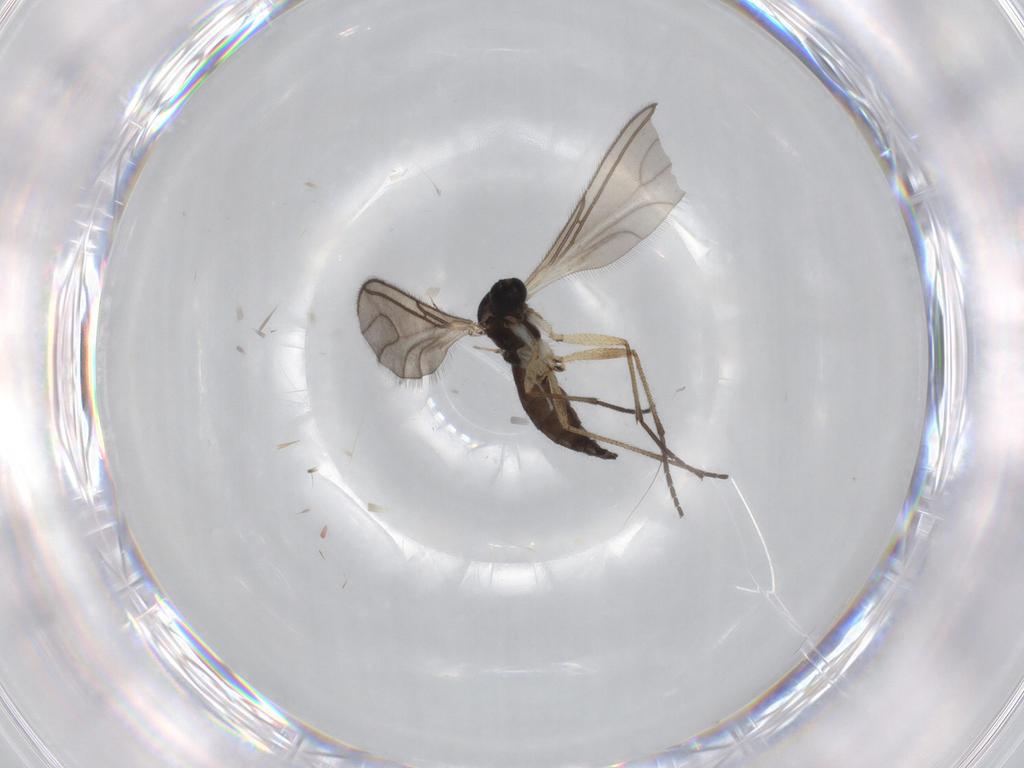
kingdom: Animalia
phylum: Arthropoda
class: Insecta
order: Diptera
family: Sciaridae
